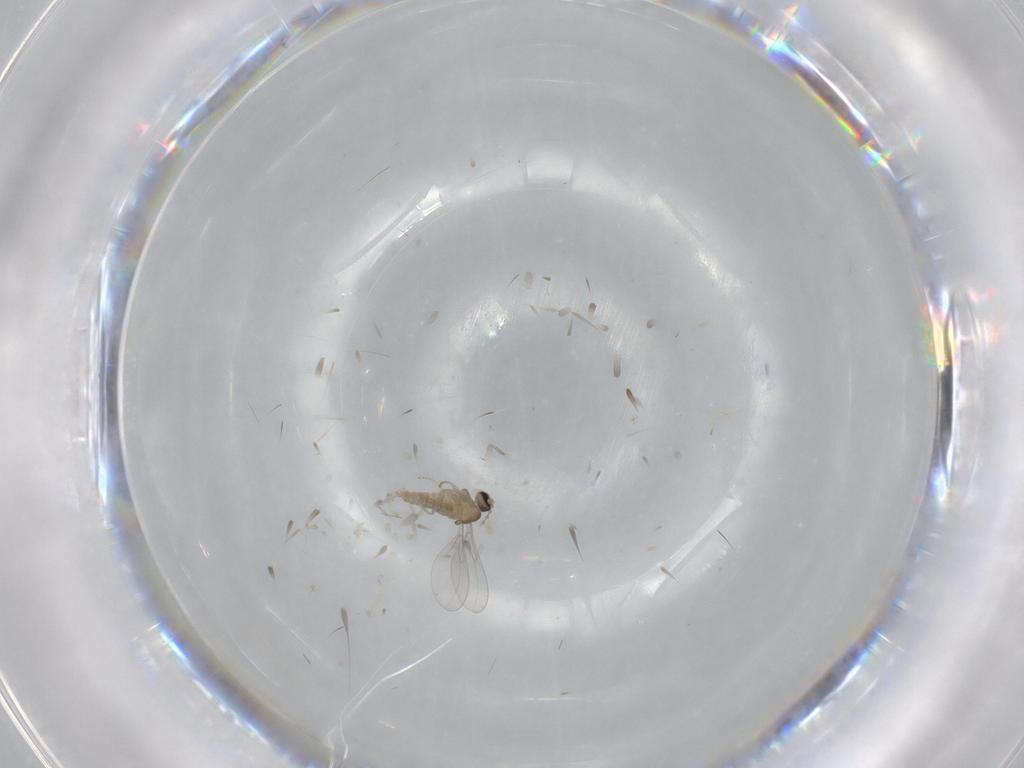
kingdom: Animalia
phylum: Arthropoda
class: Insecta
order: Diptera
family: Cecidomyiidae
